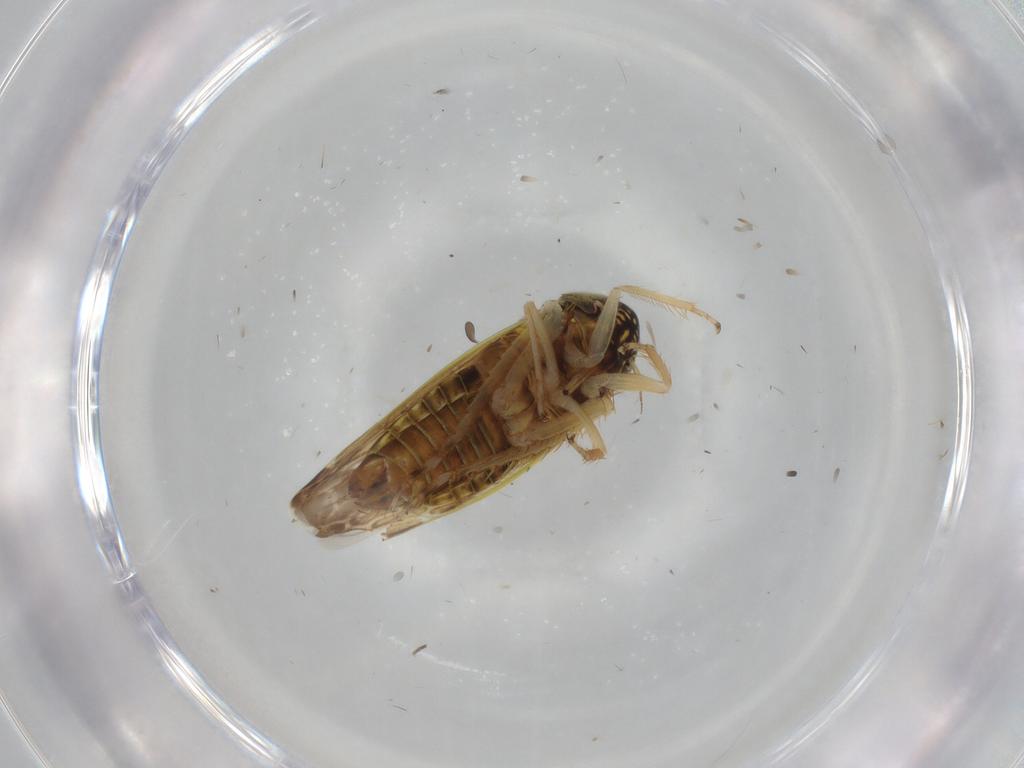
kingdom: Animalia
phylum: Arthropoda
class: Insecta
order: Hemiptera
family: Cicadellidae
